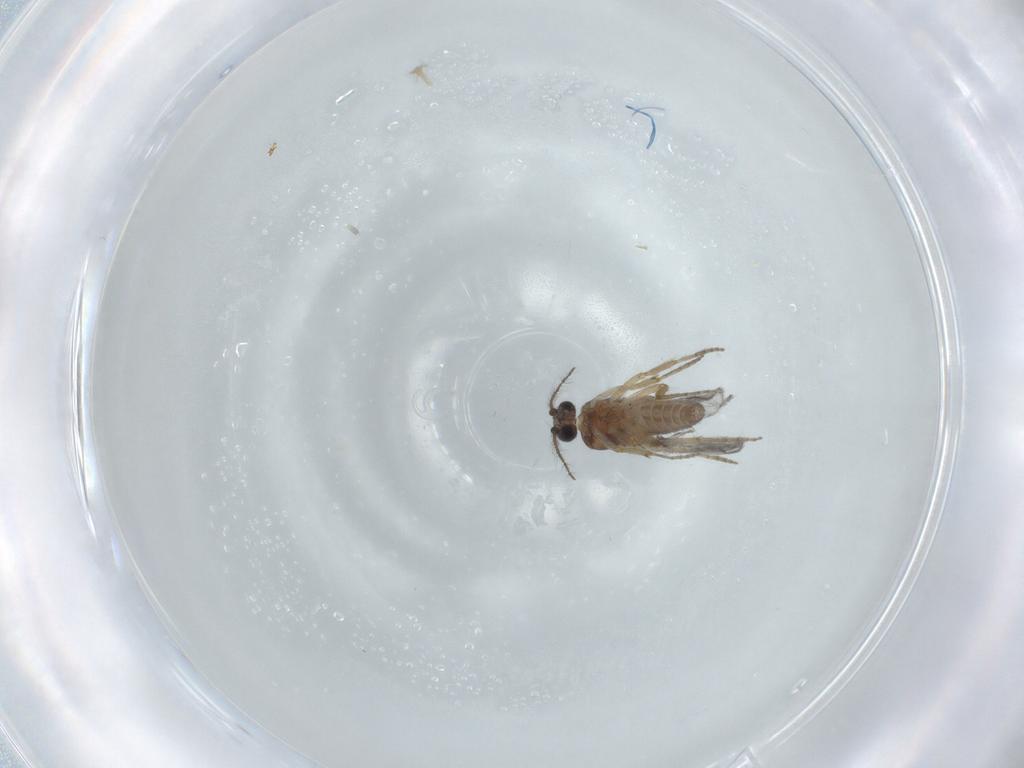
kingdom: Animalia
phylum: Arthropoda
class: Insecta
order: Diptera
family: Ceratopogonidae
